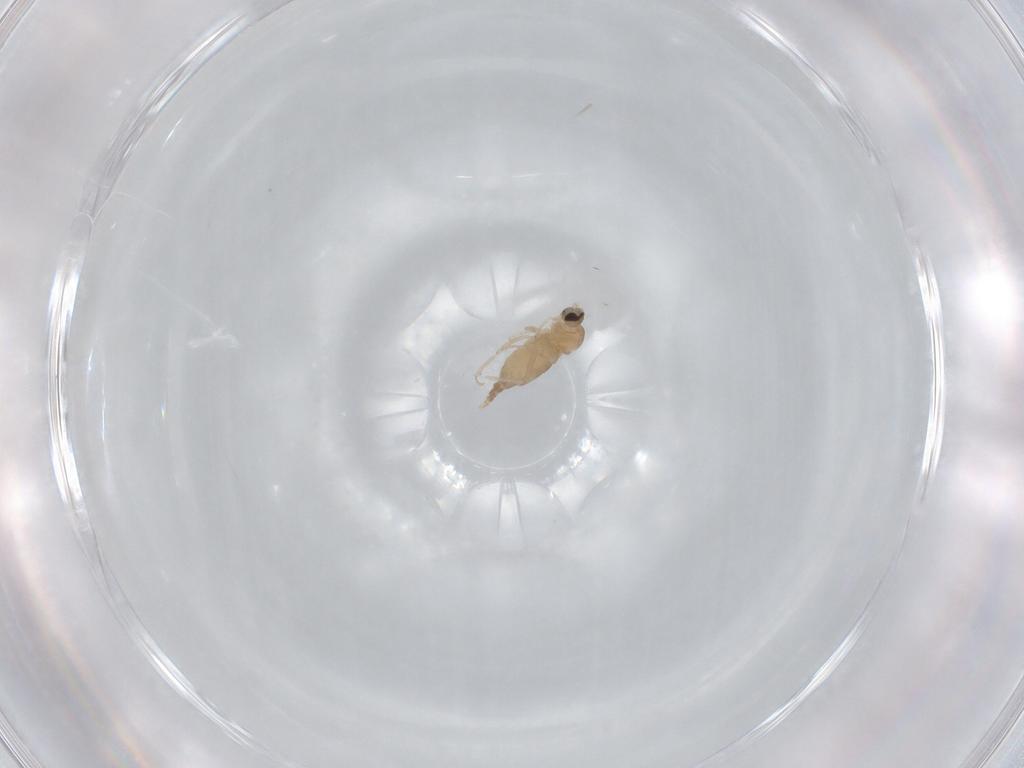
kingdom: Animalia
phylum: Arthropoda
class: Insecta
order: Diptera
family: Cecidomyiidae
